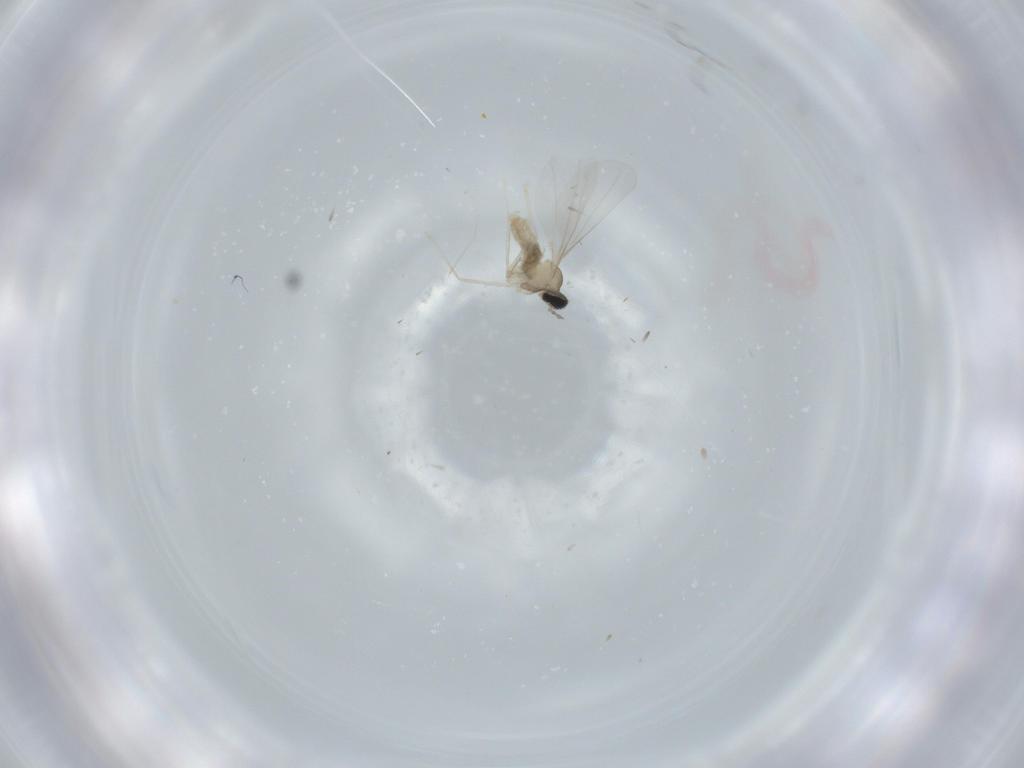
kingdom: Animalia
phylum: Arthropoda
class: Insecta
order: Diptera
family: Cecidomyiidae
